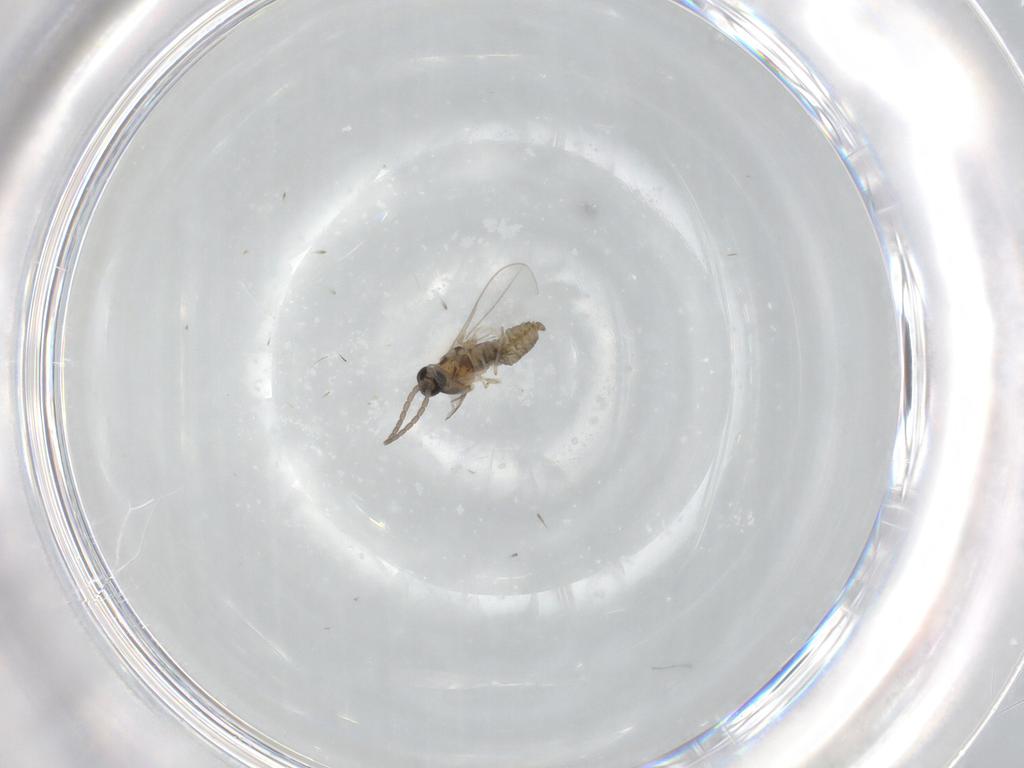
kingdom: Animalia
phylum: Arthropoda
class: Insecta
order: Diptera
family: Cecidomyiidae
